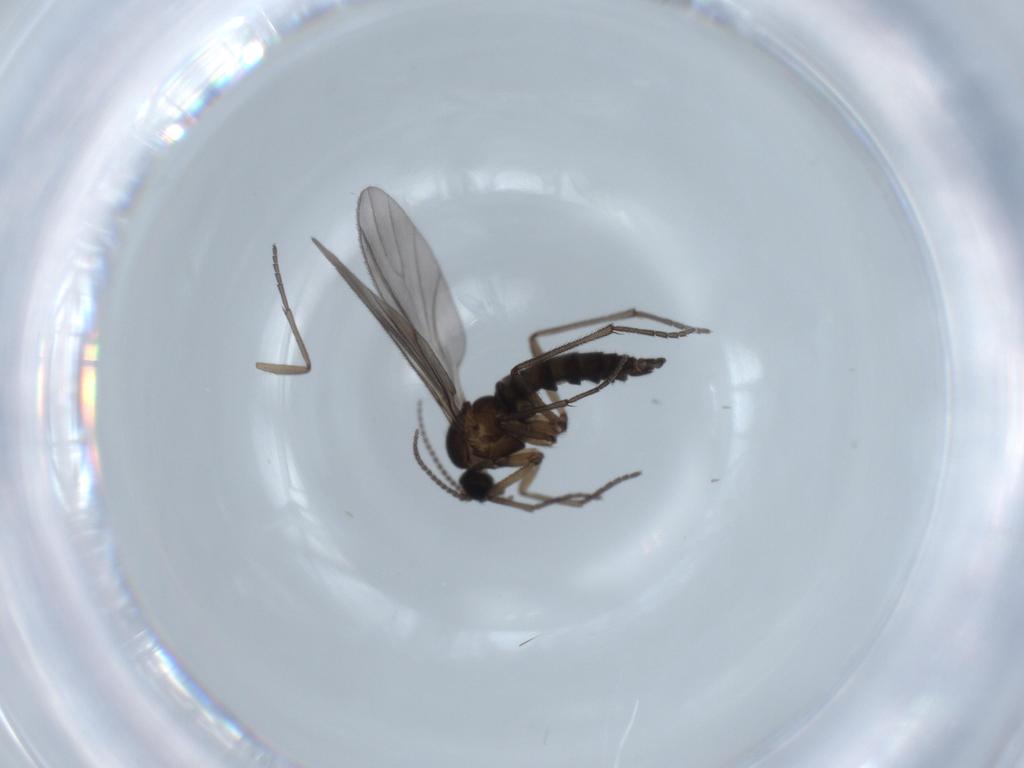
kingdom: Animalia
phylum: Arthropoda
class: Insecta
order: Diptera
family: Sciaridae
